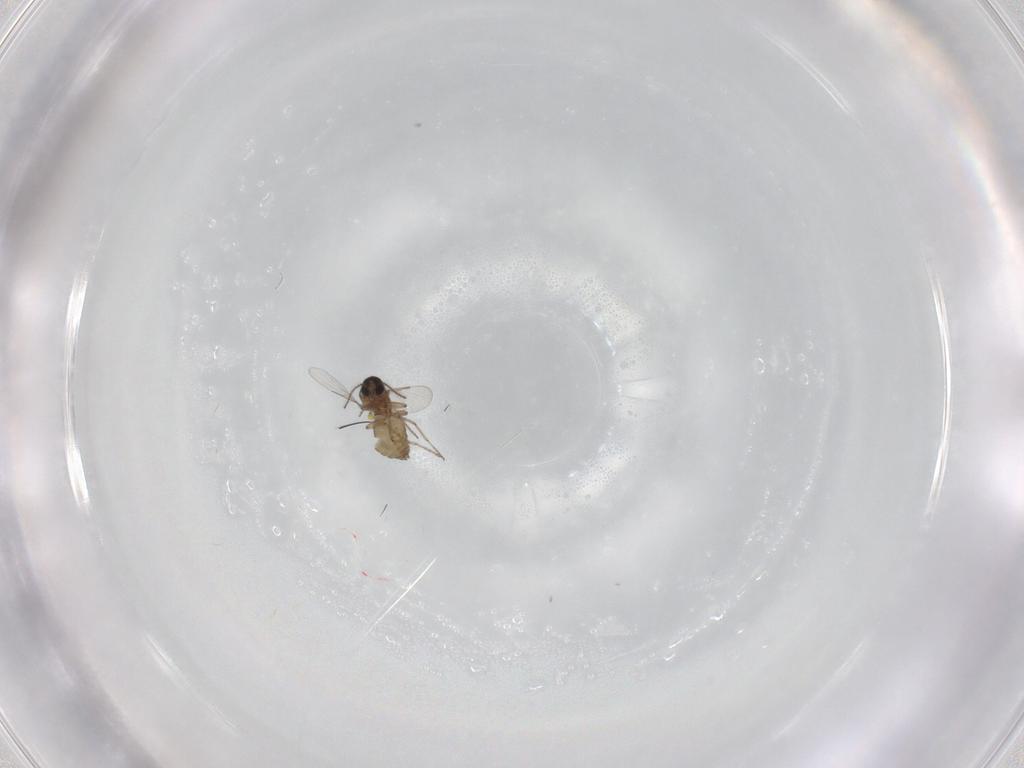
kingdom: Animalia
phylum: Arthropoda
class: Insecta
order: Diptera
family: Ceratopogonidae
